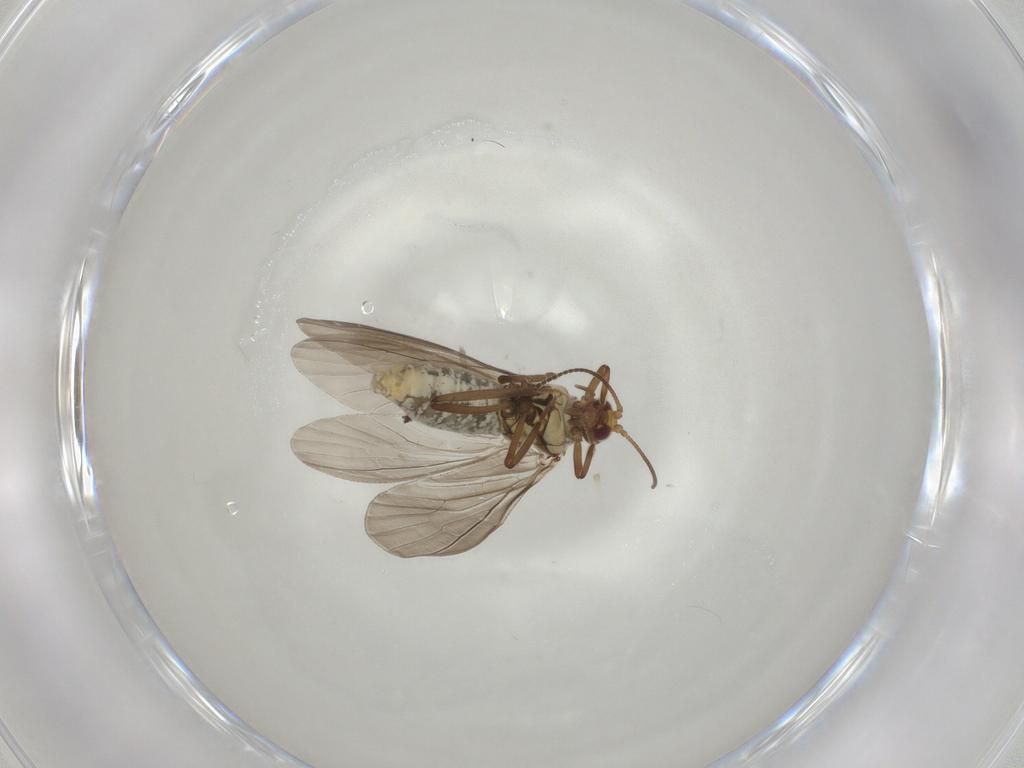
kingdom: Animalia
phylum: Arthropoda
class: Insecta
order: Neuroptera
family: Coniopterygidae
